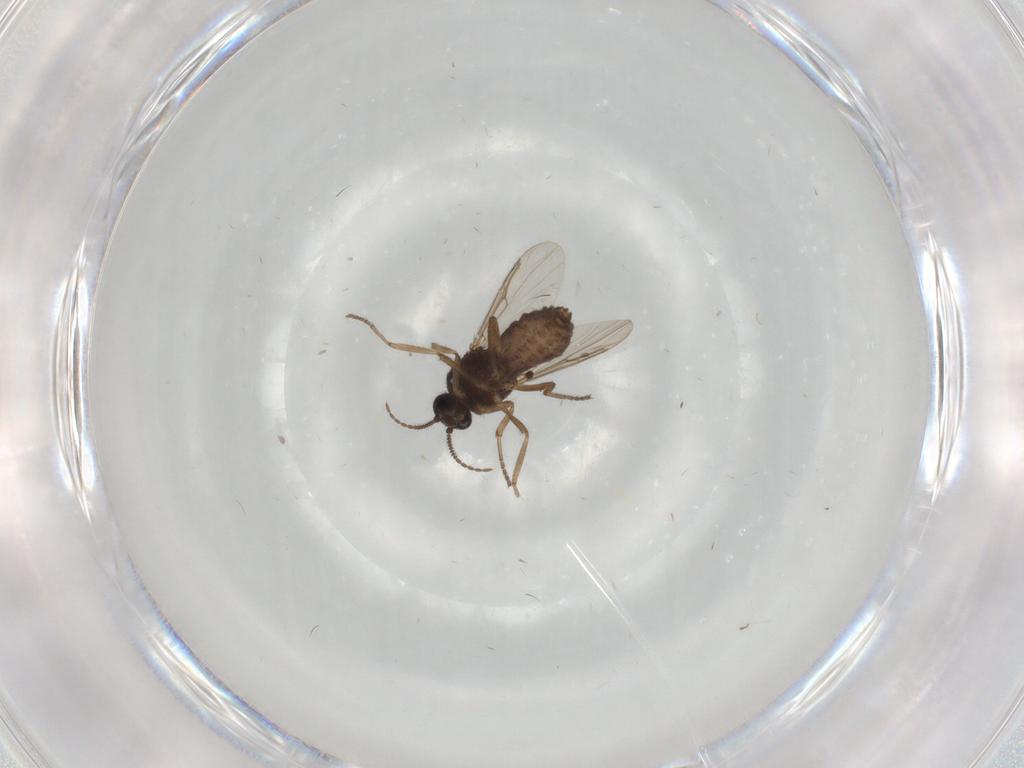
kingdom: Animalia
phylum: Arthropoda
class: Insecta
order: Diptera
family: Ceratopogonidae
